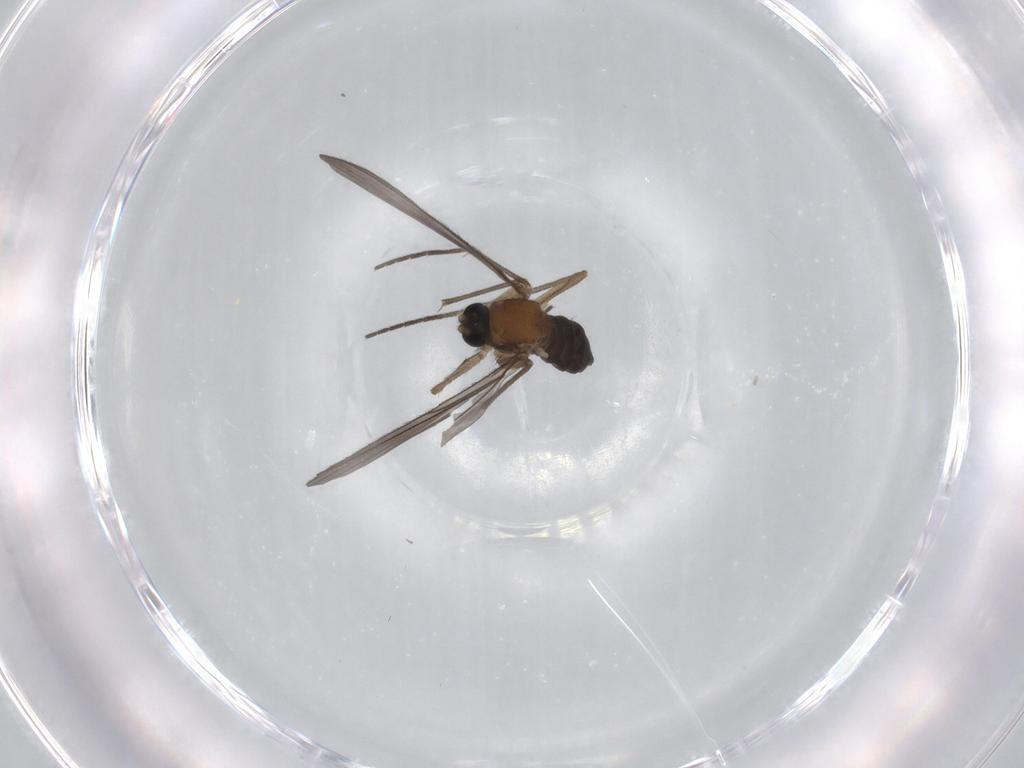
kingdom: Animalia
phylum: Arthropoda
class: Insecta
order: Diptera
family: Sciaridae
